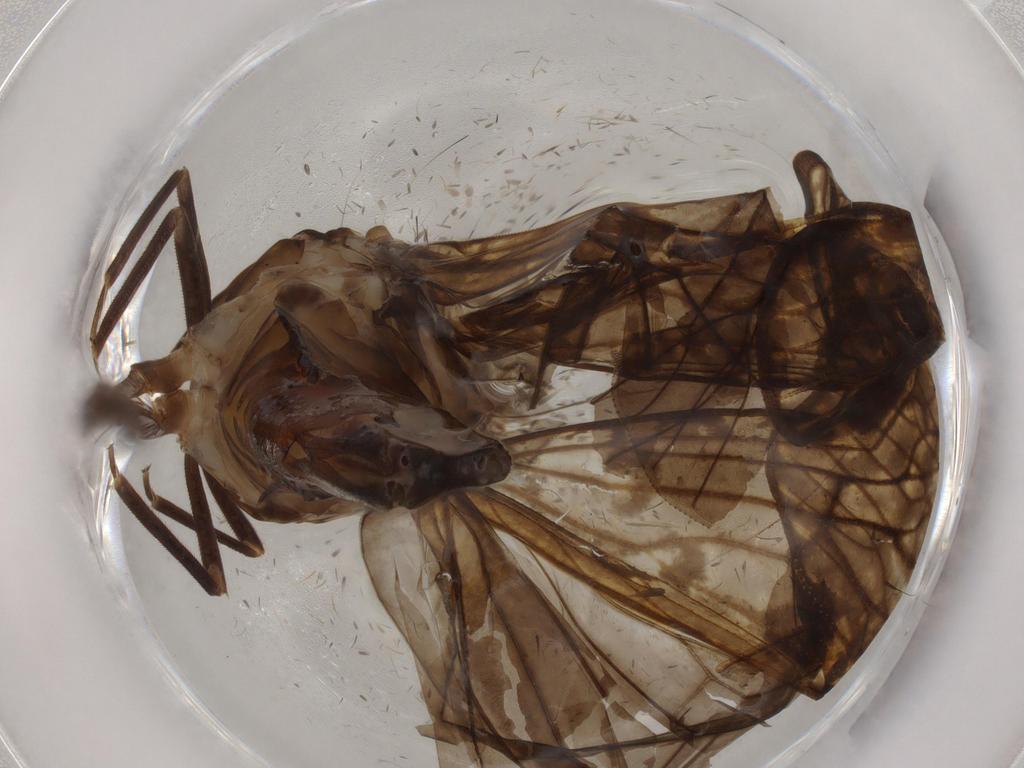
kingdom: Animalia
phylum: Arthropoda
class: Insecta
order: Hemiptera
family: Cixiidae
